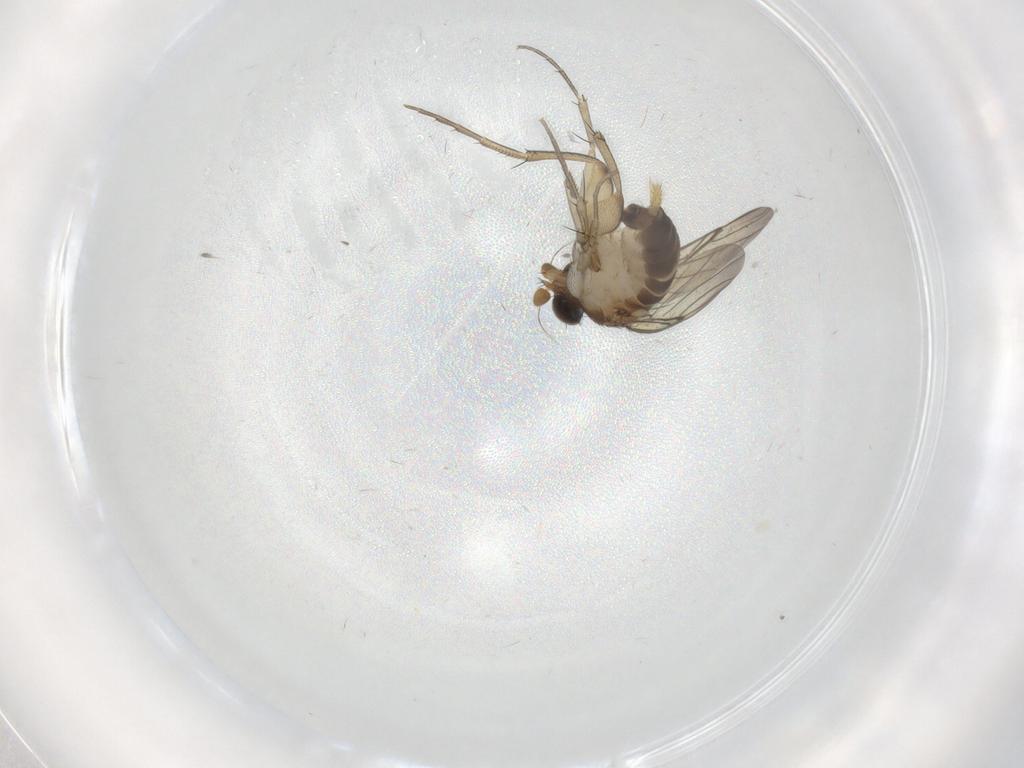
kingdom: Animalia
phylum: Arthropoda
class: Insecta
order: Diptera
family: Phoridae
